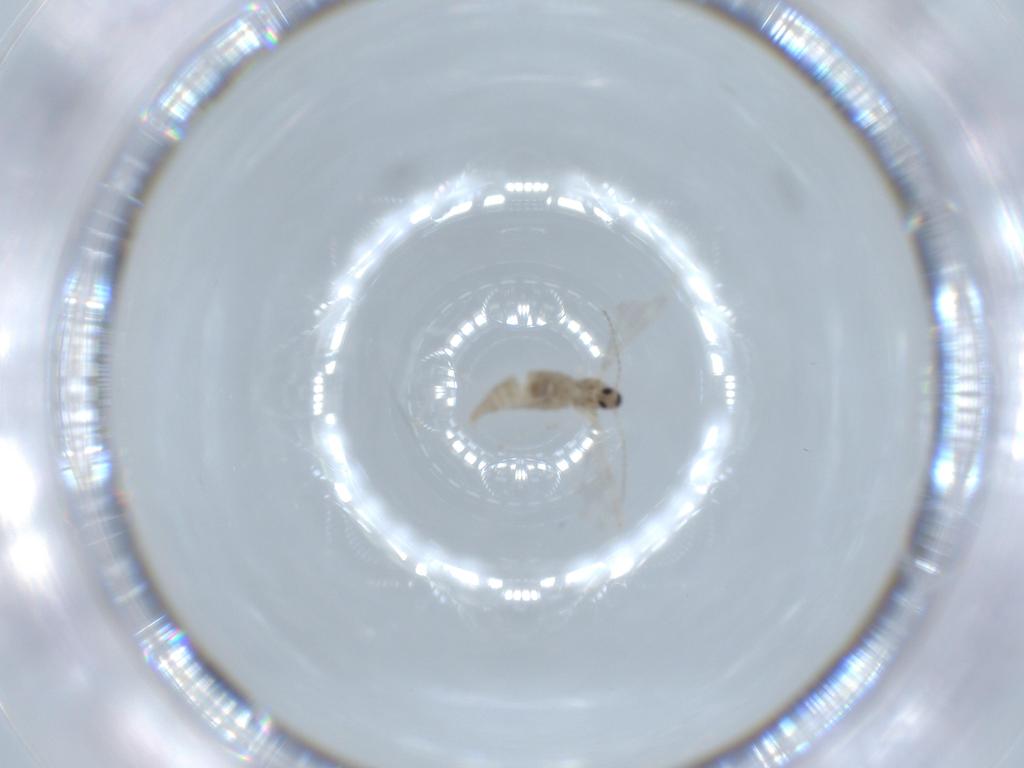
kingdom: Animalia
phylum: Arthropoda
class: Insecta
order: Diptera
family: Cecidomyiidae
